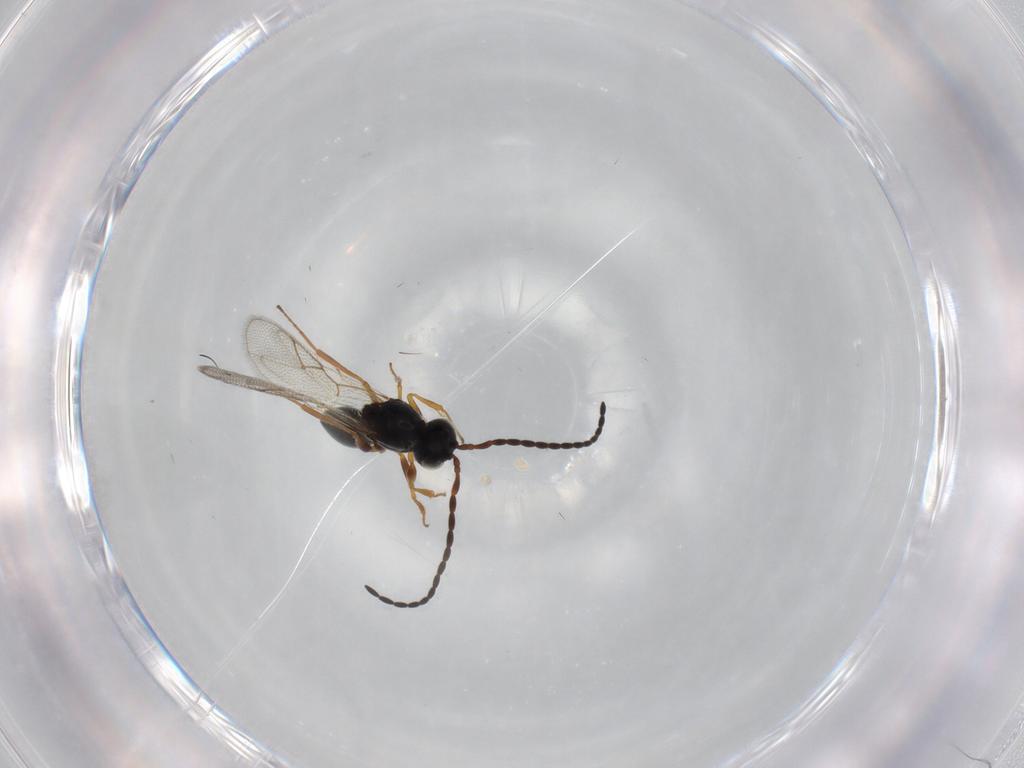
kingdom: Animalia
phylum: Arthropoda
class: Insecta
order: Hymenoptera
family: Figitidae
